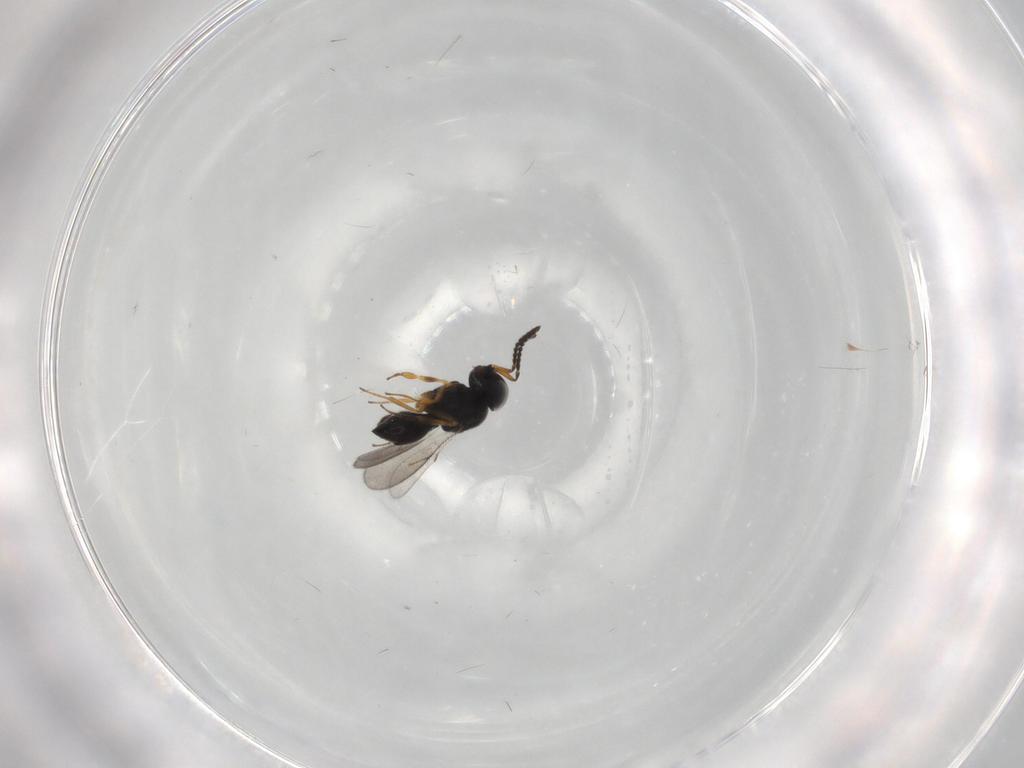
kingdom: Animalia
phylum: Arthropoda
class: Insecta
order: Hymenoptera
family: Scelionidae
